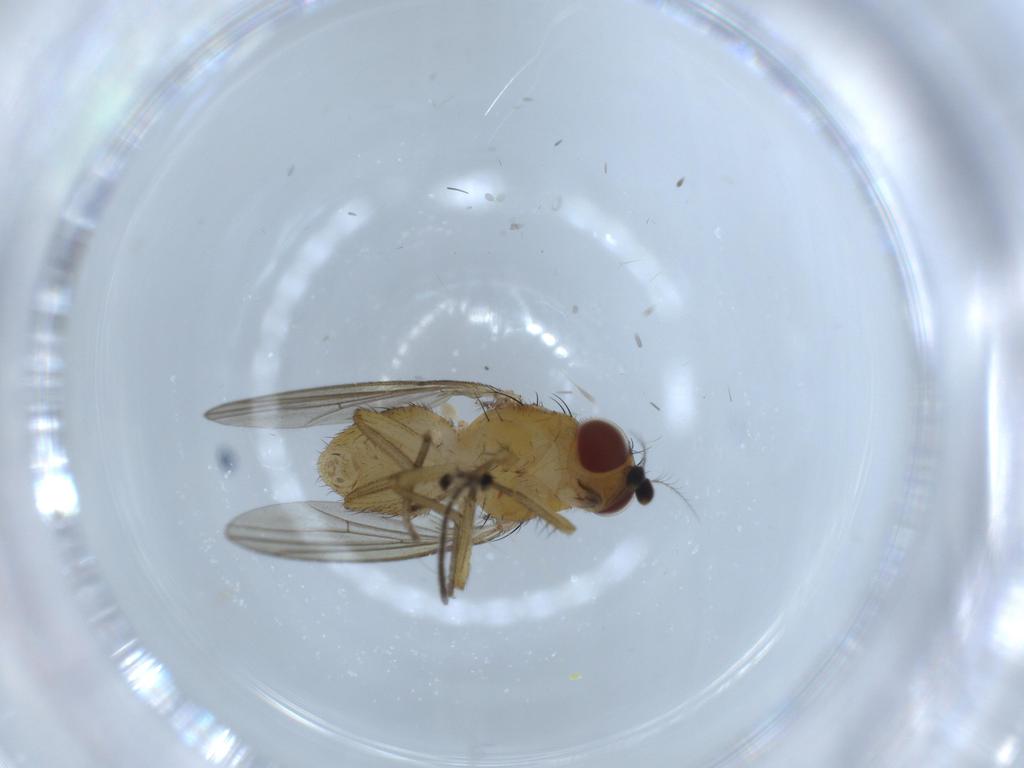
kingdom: Animalia
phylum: Arthropoda
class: Insecta
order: Diptera
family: Lauxaniidae
